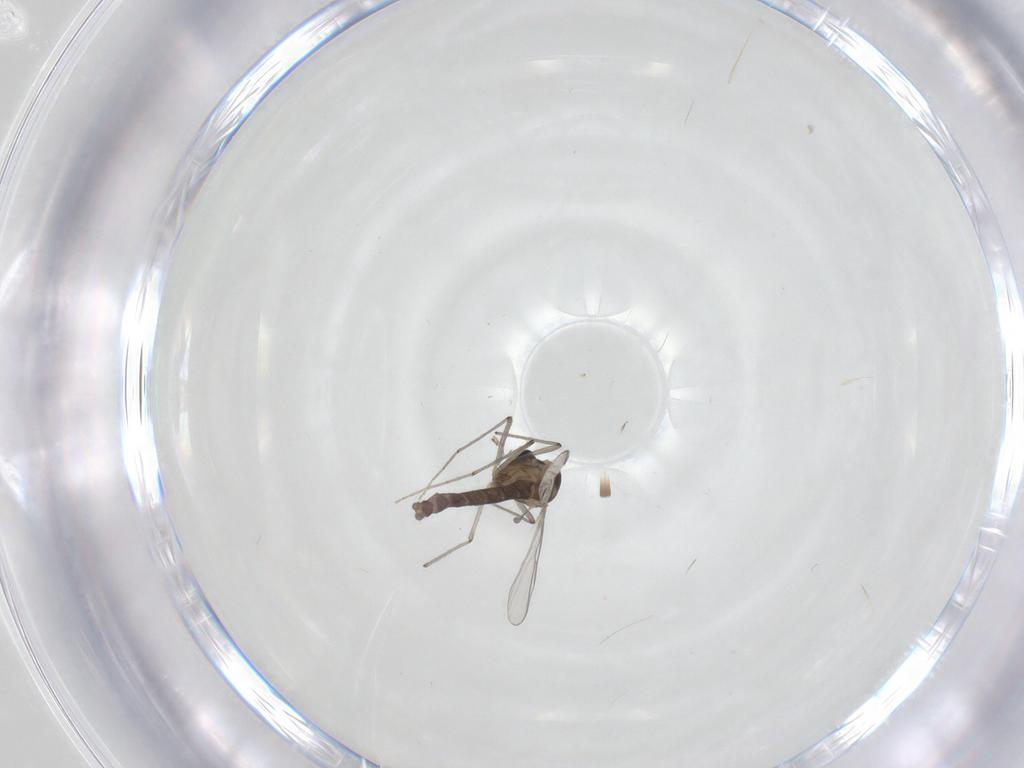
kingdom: Animalia
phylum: Arthropoda
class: Insecta
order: Diptera
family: Chironomidae
